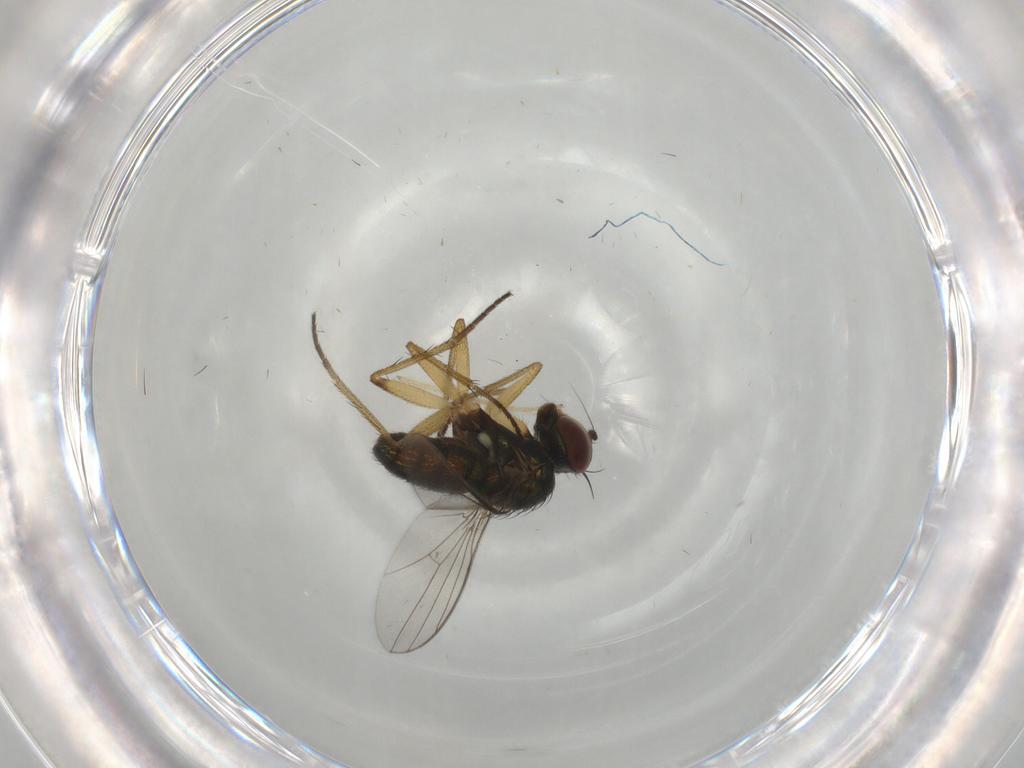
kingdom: Animalia
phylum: Arthropoda
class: Insecta
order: Diptera
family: Chironomidae
